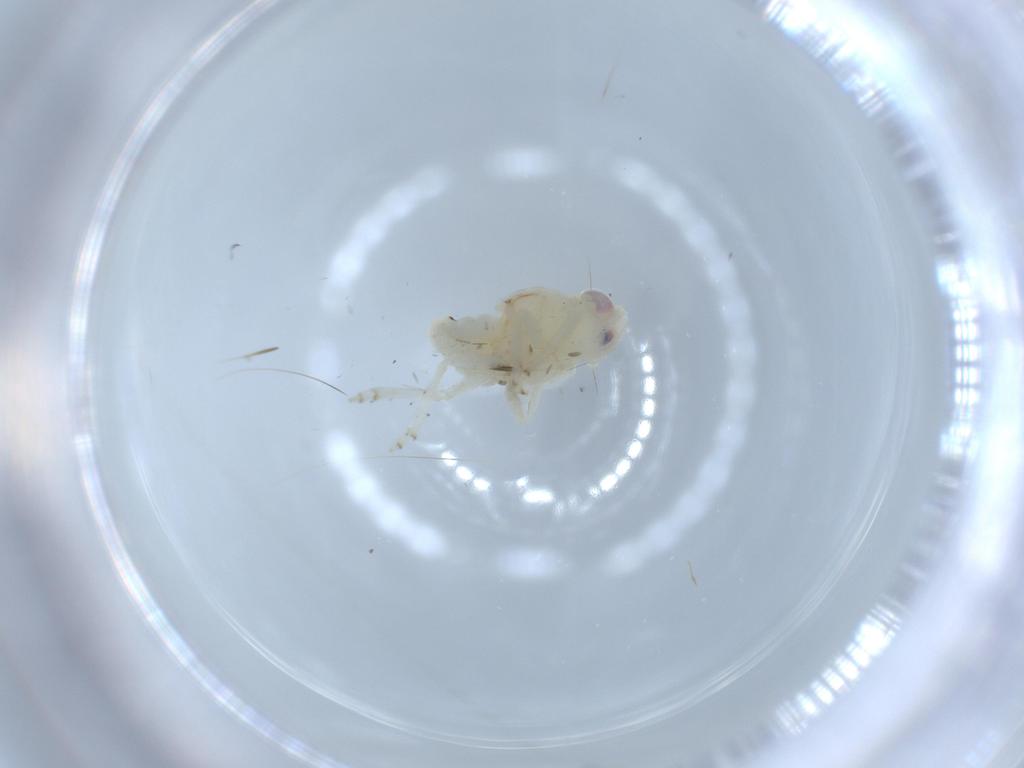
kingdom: Animalia
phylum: Arthropoda
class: Insecta
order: Hemiptera
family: Nogodinidae
